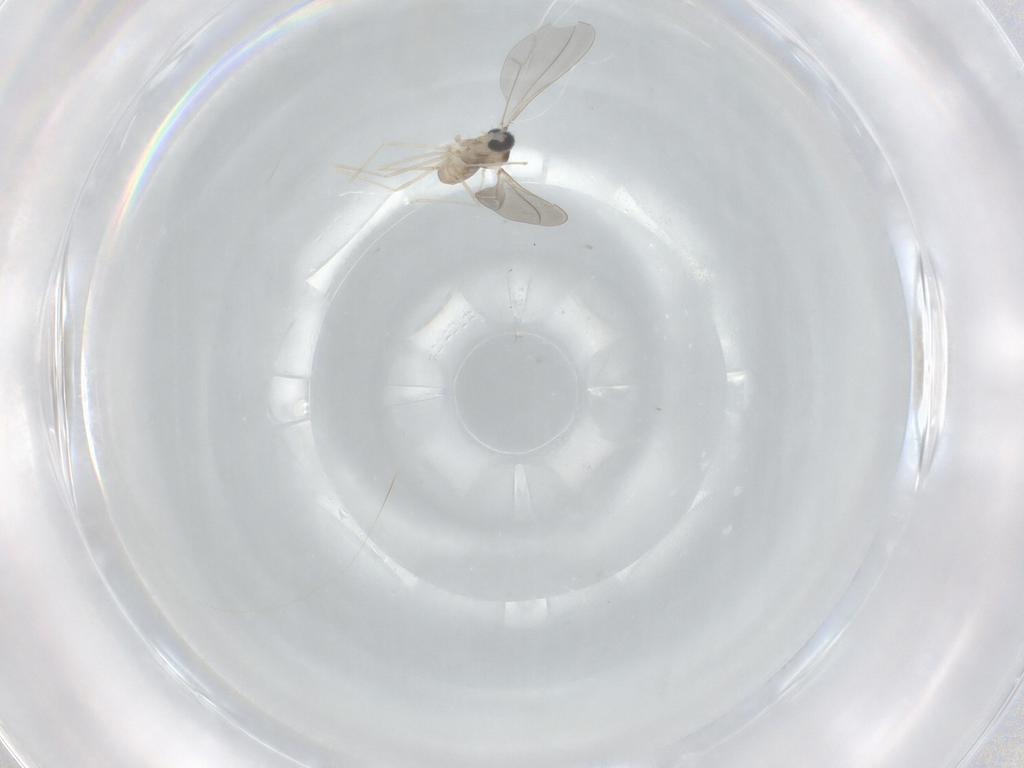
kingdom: Animalia
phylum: Arthropoda
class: Insecta
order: Diptera
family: Cecidomyiidae
